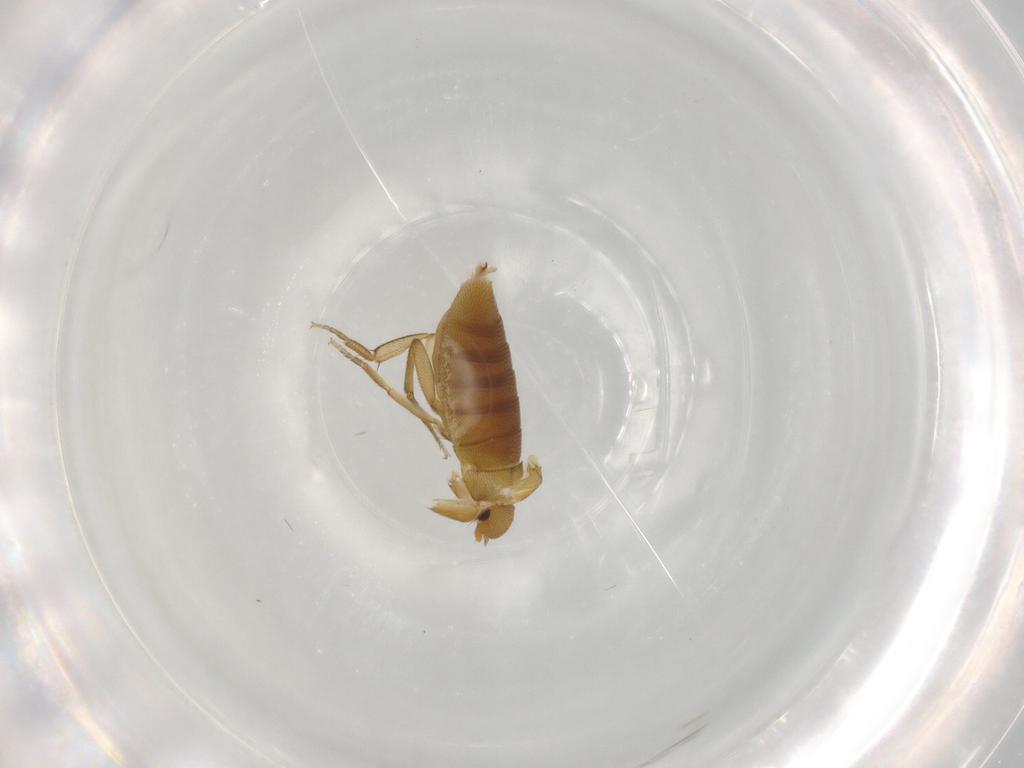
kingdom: Animalia
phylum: Arthropoda
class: Insecta
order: Diptera
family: Phoridae
